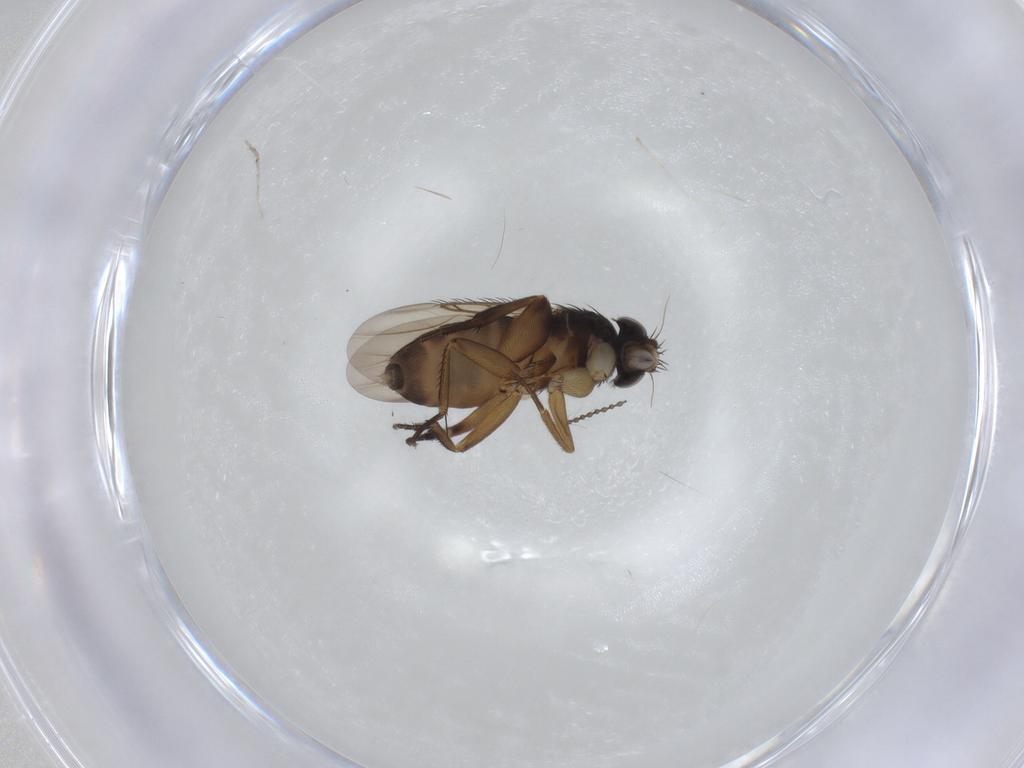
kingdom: Animalia
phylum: Arthropoda
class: Insecta
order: Diptera
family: Phoridae
